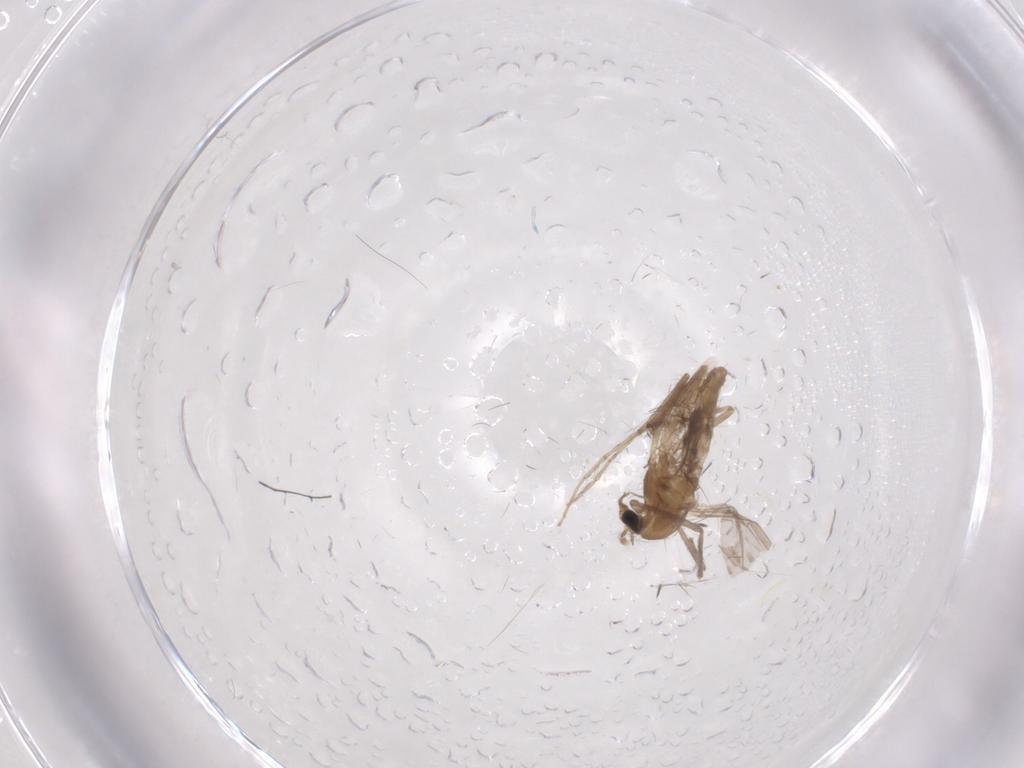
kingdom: Animalia
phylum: Arthropoda
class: Insecta
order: Diptera
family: Chironomidae
